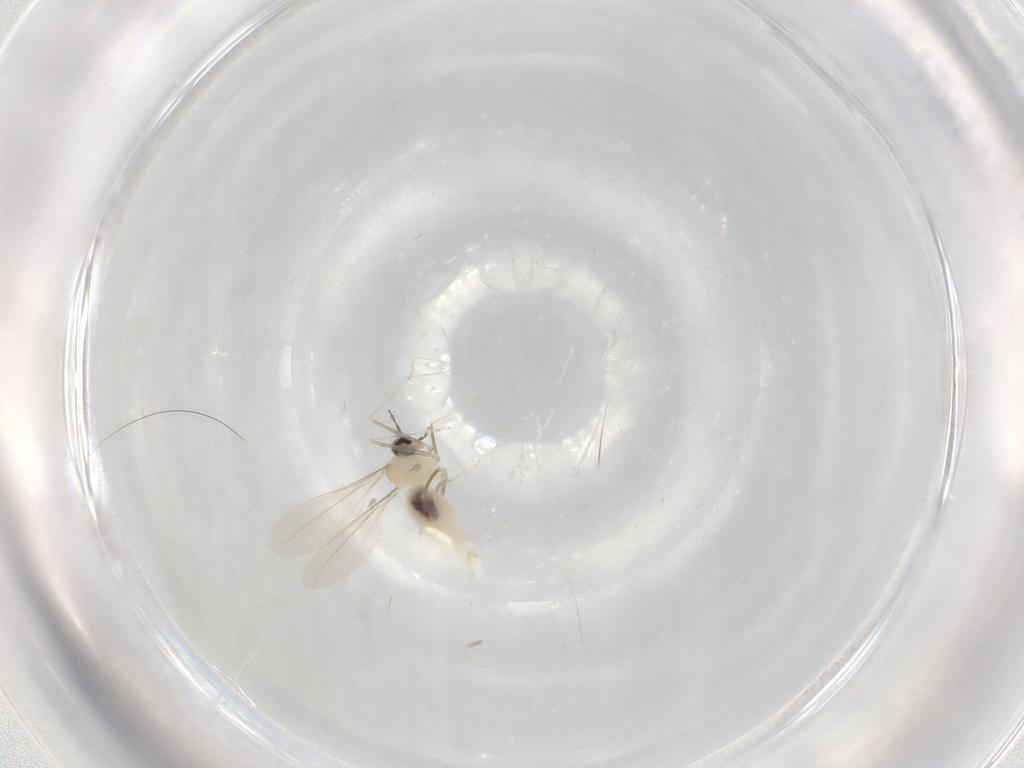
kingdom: Animalia
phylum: Arthropoda
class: Insecta
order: Diptera
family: Cecidomyiidae
